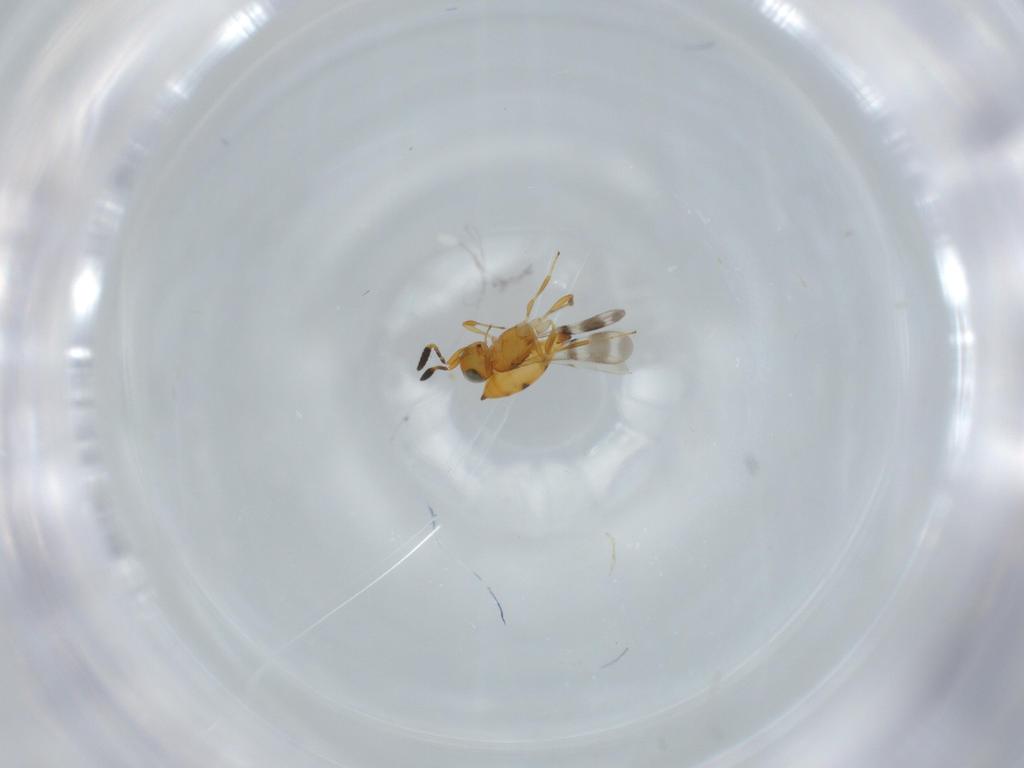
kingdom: Animalia
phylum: Arthropoda
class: Insecta
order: Hymenoptera
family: Scelionidae
